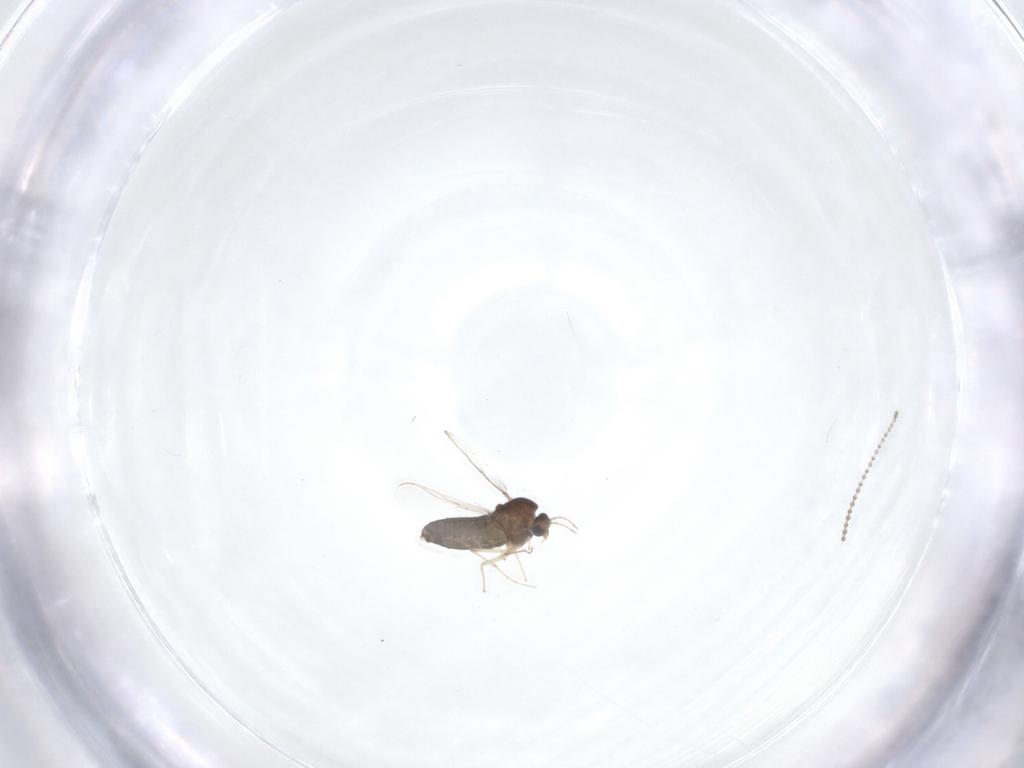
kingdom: Animalia
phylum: Arthropoda
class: Insecta
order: Diptera
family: Chironomidae
